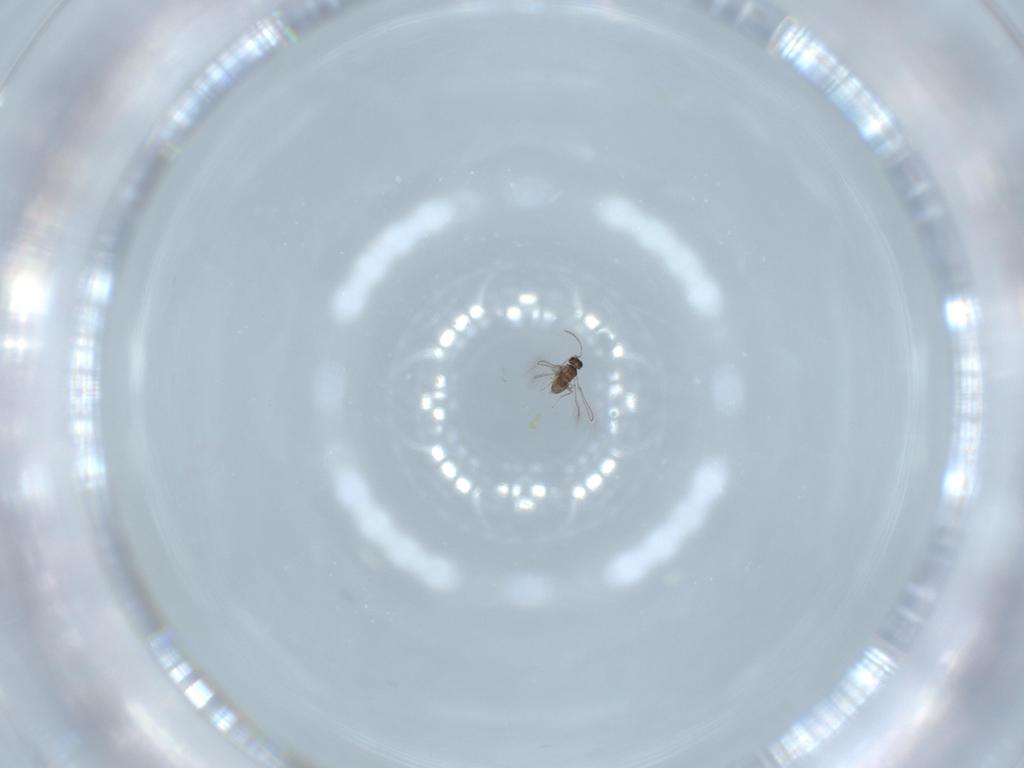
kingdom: Animalia
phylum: Arthropoda
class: Insecta
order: Hymenoptera
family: Mymaridae
